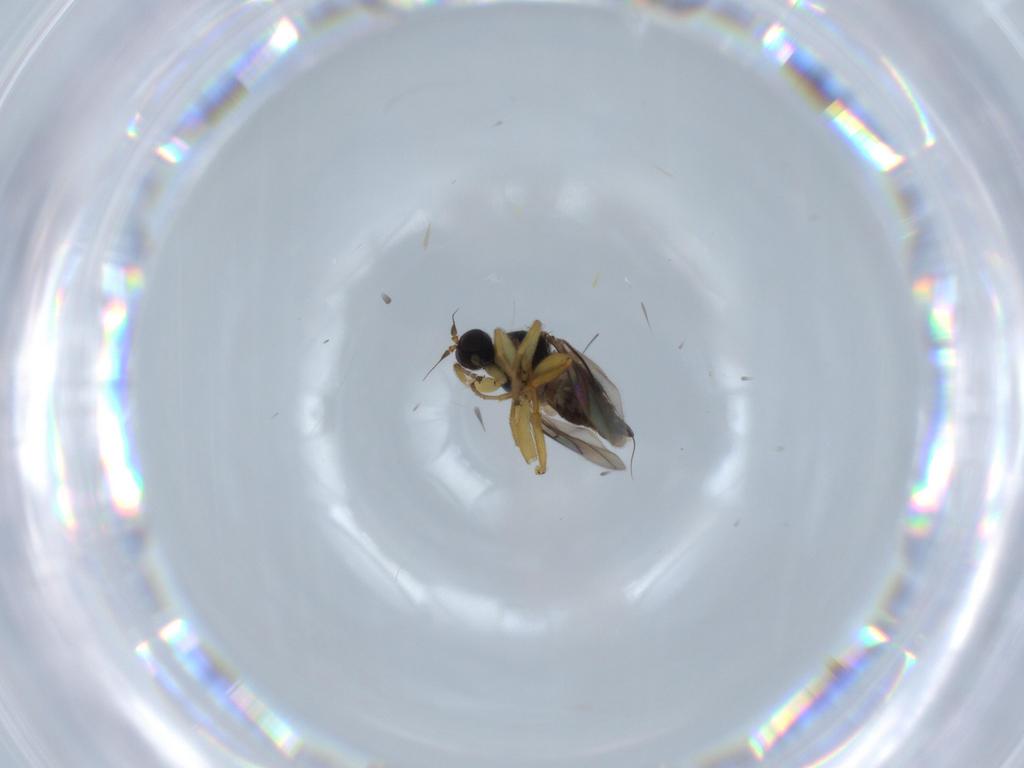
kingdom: Animalia
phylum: Arthropoda
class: Insecta
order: Diptera
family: Hybotidae
